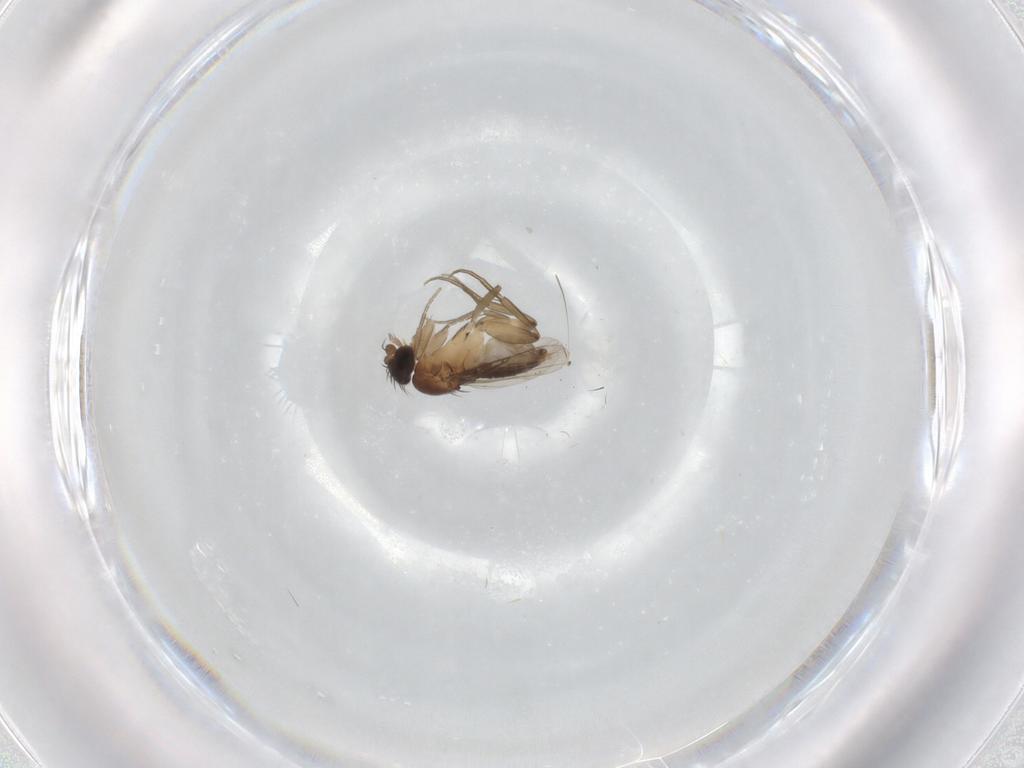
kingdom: Animalia
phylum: Arthropoda
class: Insecta
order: Diptera
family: Phoridae
